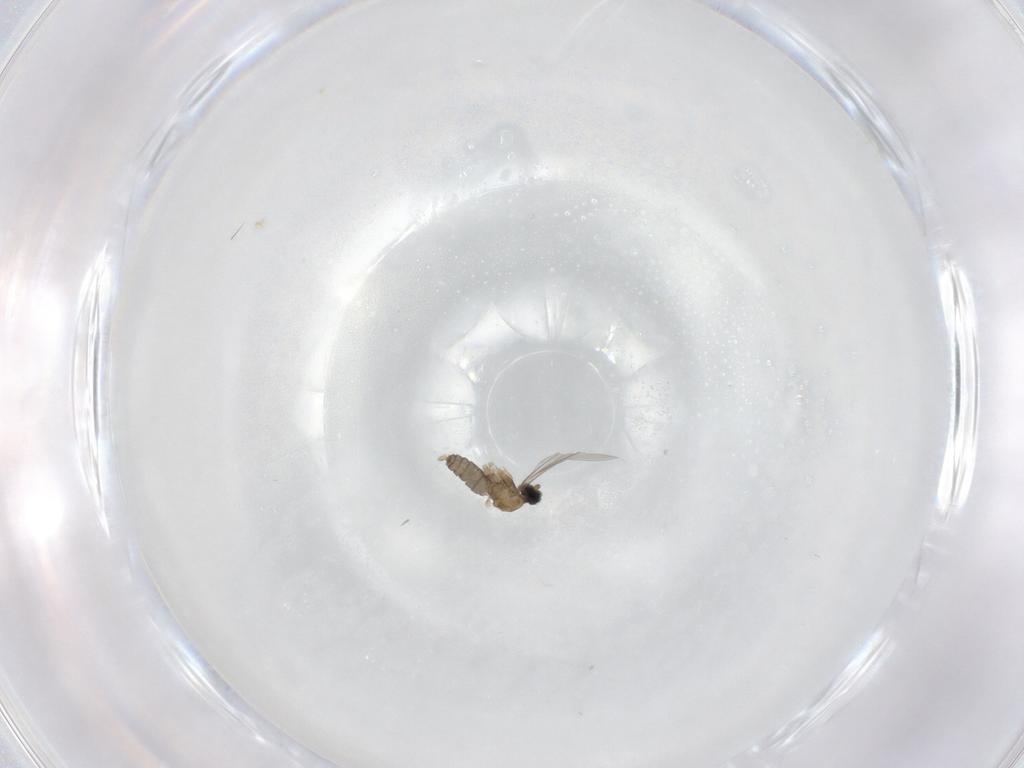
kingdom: Animalia
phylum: Arthropoda
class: Insecta
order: Diptera
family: Cecidomyiidae
